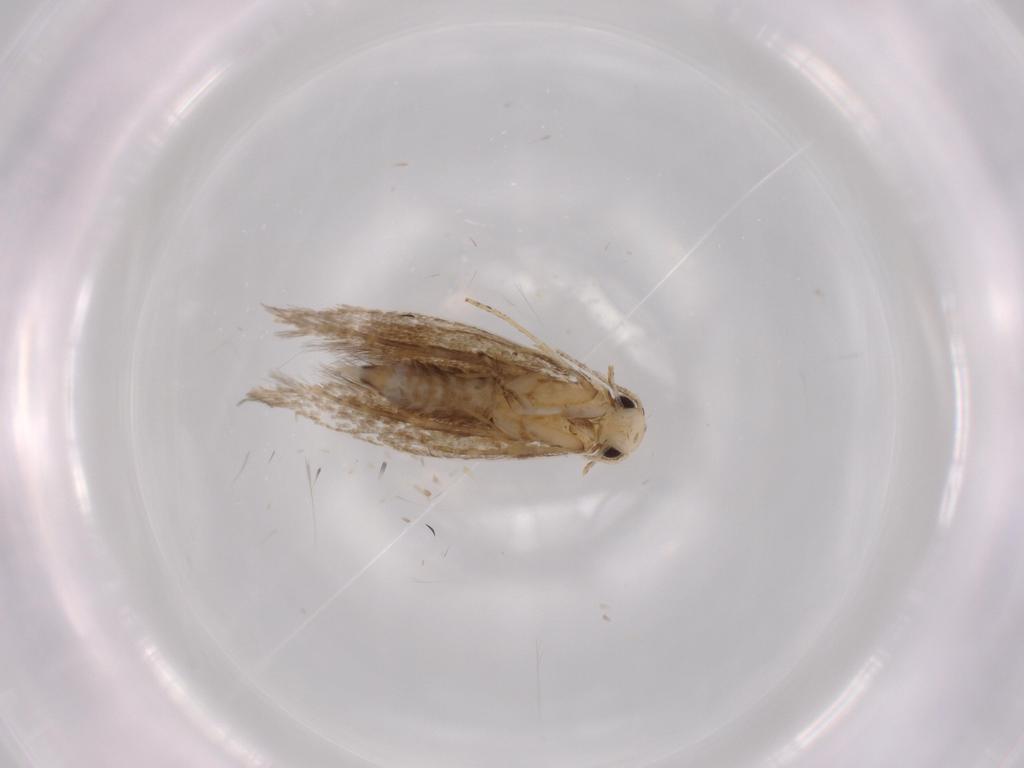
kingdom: Animalia
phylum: Arthropoda
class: Insecta
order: Lepidoptera
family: Tineidae
